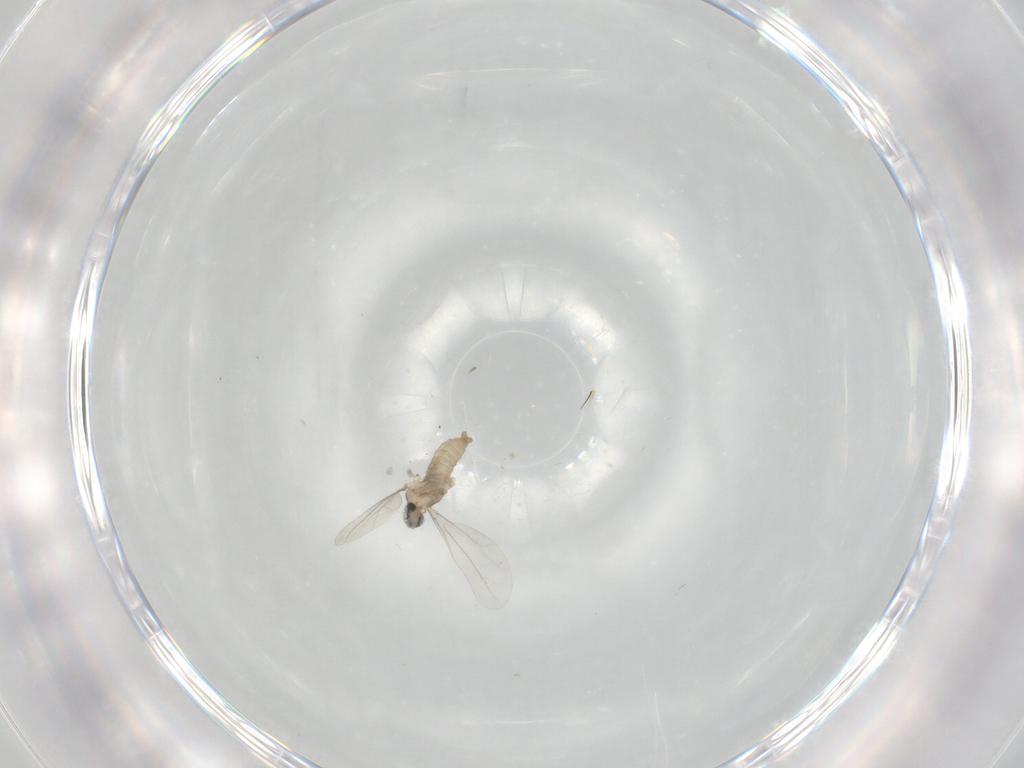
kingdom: Animalia
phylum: Arthropoda
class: Insecta
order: Diptera
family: Cecidomyiidae
